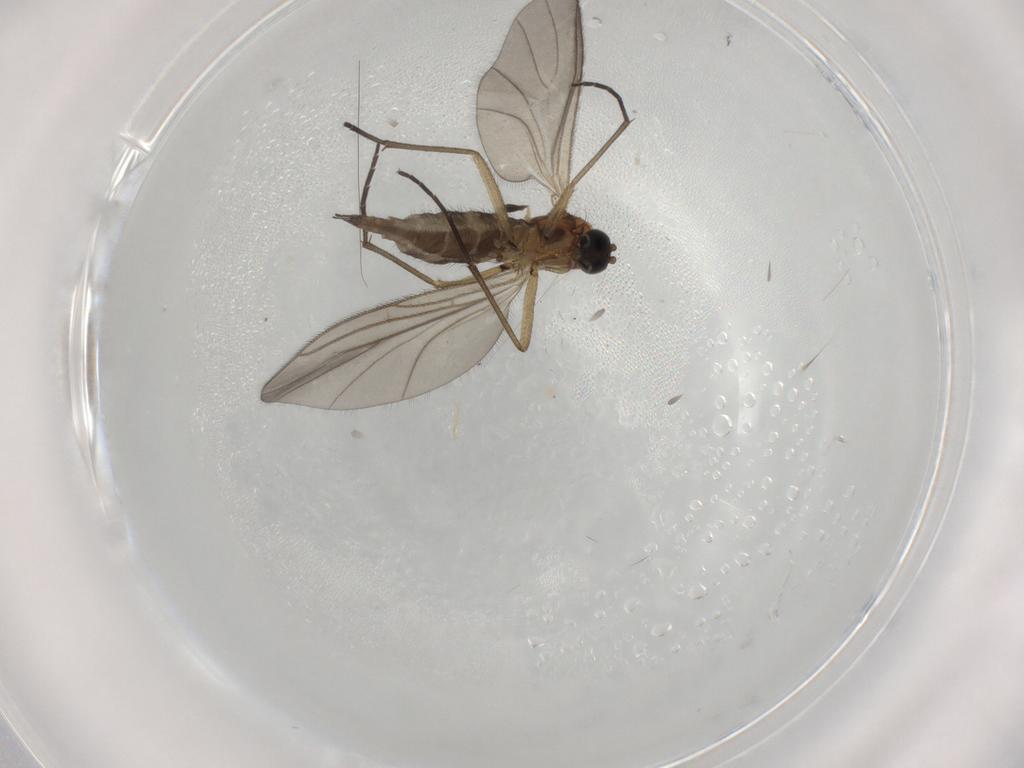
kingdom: Animalia
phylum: Arthropoda
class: Insecta
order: Diptera
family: Sciaridae
